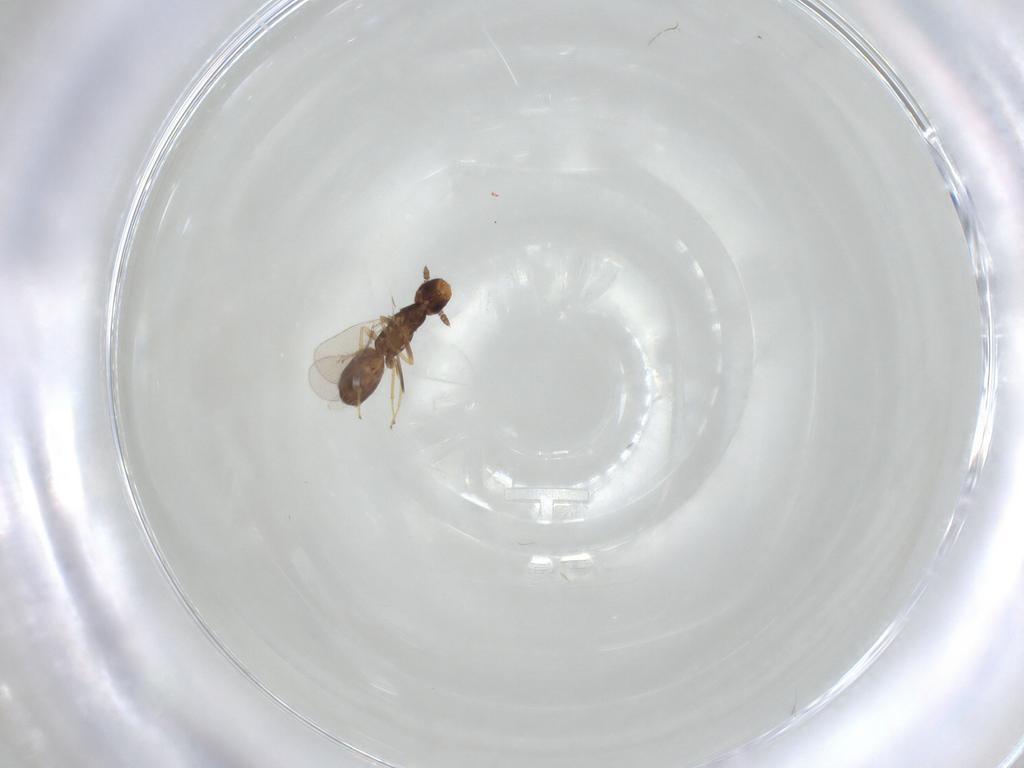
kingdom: Animalia
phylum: Arthropoda
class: Insecta
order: Hymenoptera
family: Eulophidae
